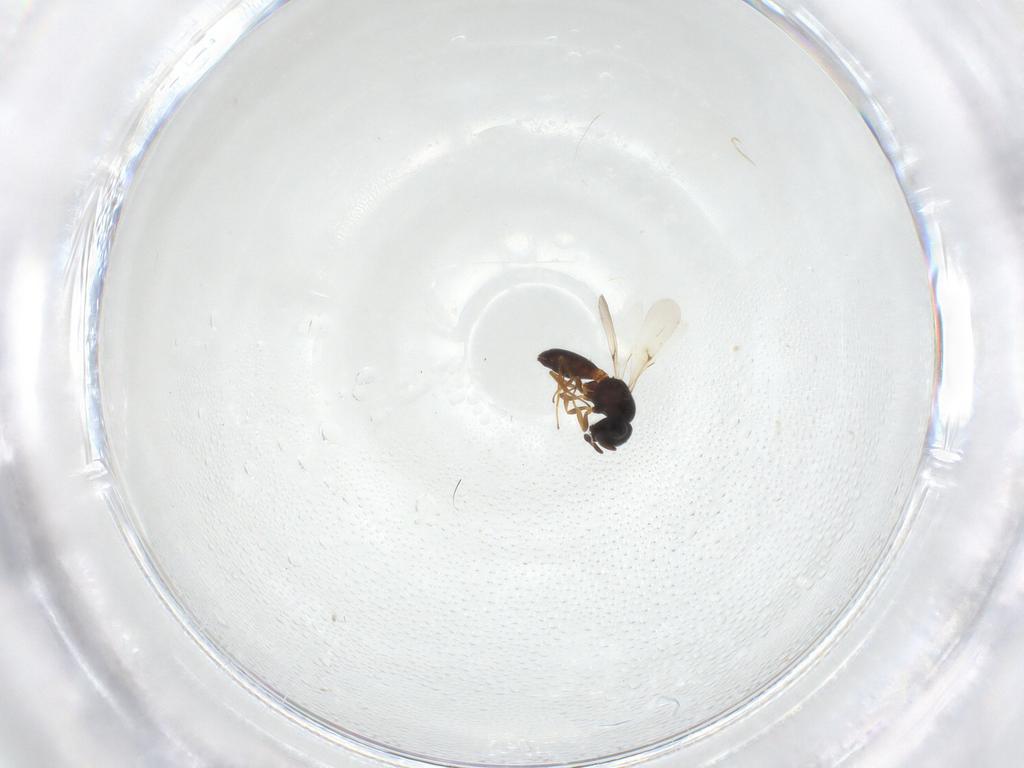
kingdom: Animalia
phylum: Arthropoda
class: Insecta
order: Hymenoptera
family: Scelionidae
